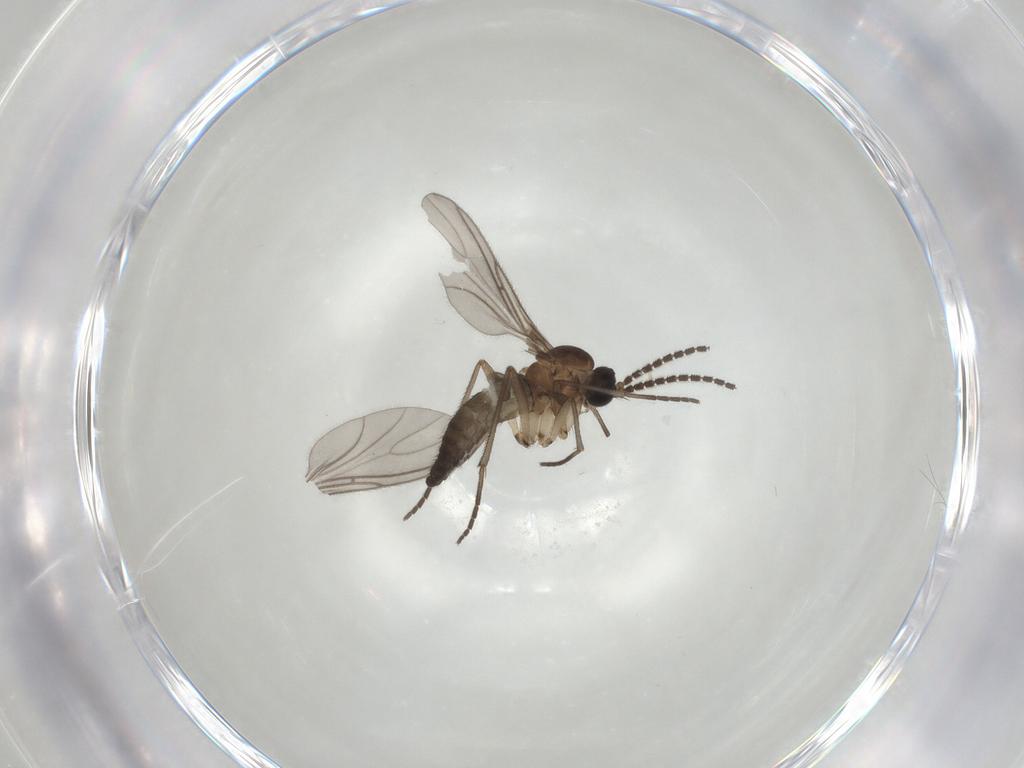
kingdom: Animalia
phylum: Arthropoda
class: Insecta
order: Diptera
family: Sciaridae
